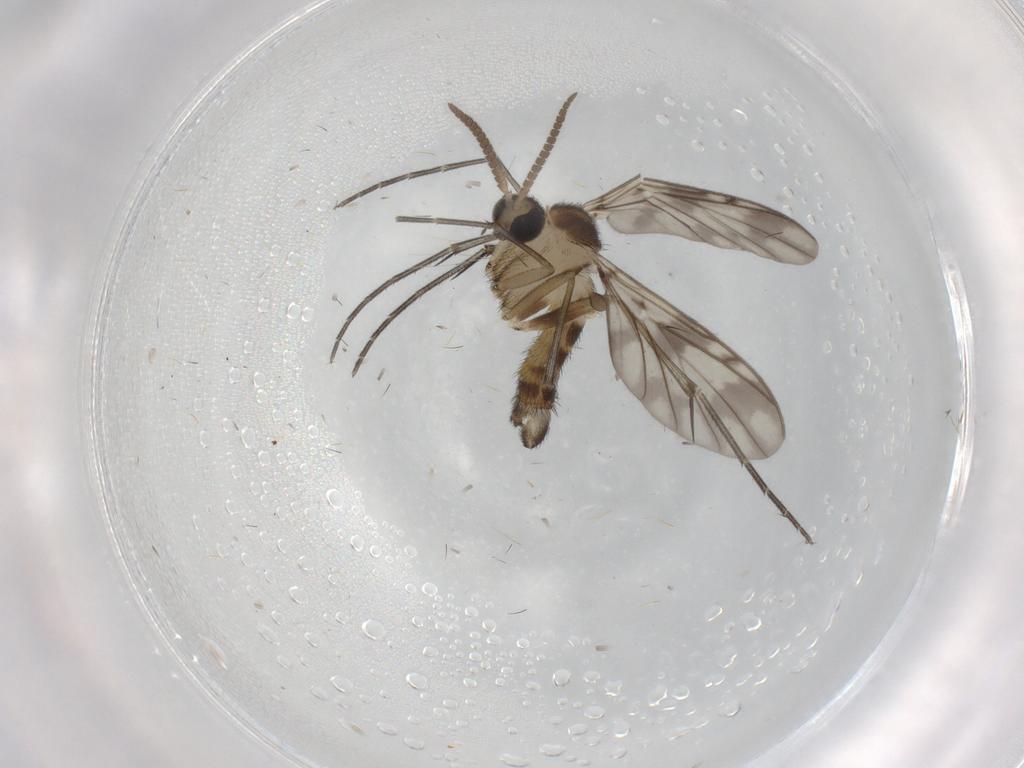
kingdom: Animalia
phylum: Arthropoda
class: Insecta
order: Diptera
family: Keroplatidae
